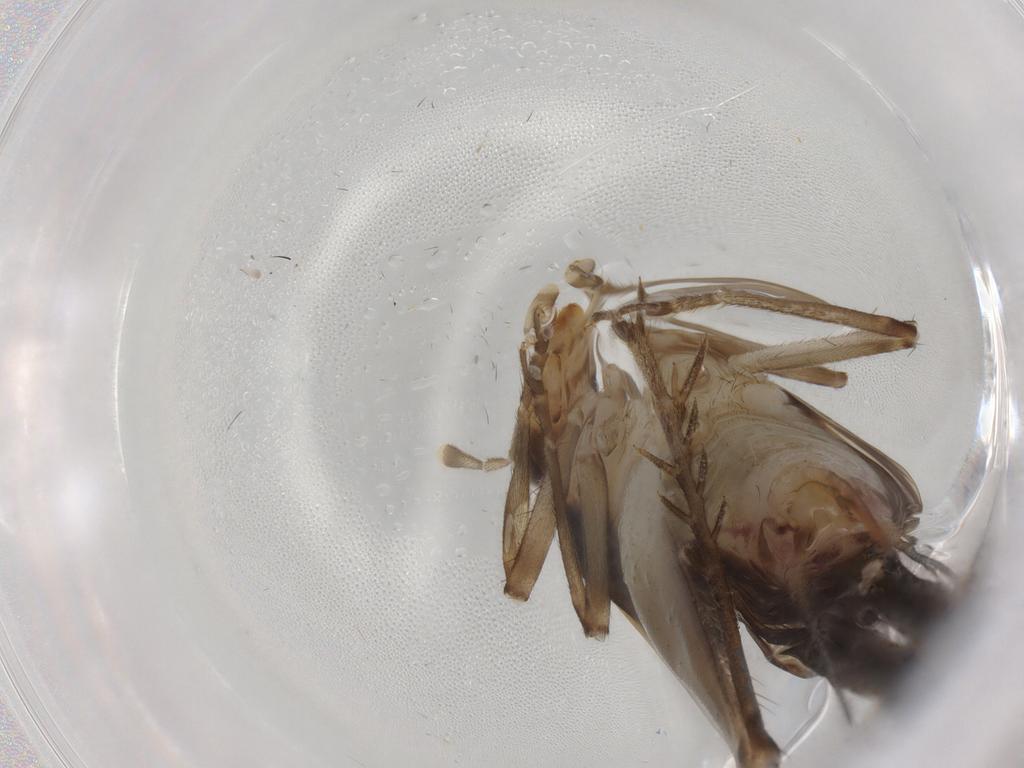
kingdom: Animalia
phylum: Arthropoda
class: Insecta
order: Orthoptera
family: Trigonidiidae
